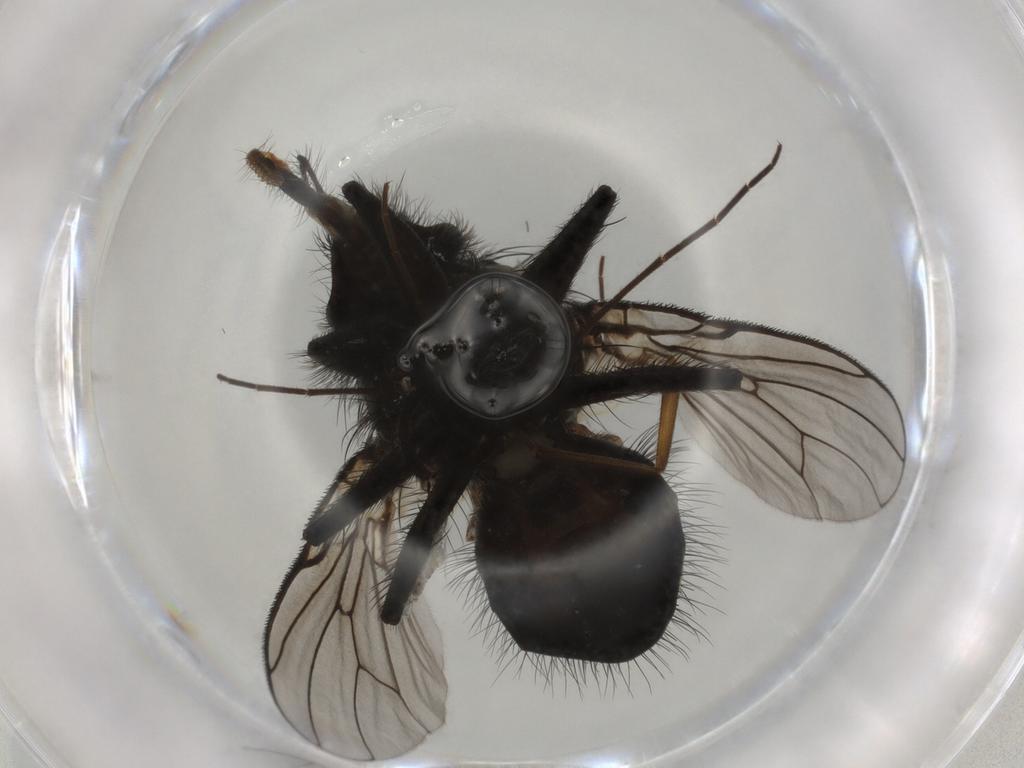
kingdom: Animalia
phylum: Arthropoda
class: Insecta
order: Diptera
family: Muscidae
